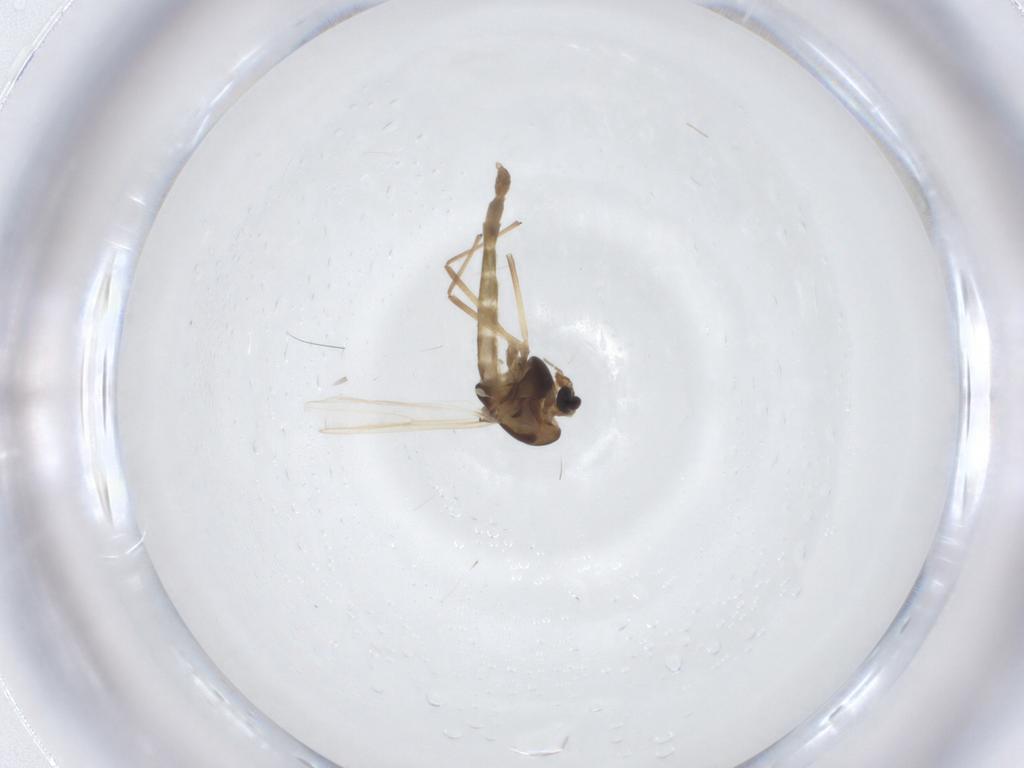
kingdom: Animalia
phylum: Arthropoda
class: Insecta
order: Diptera
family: Chironomidae
